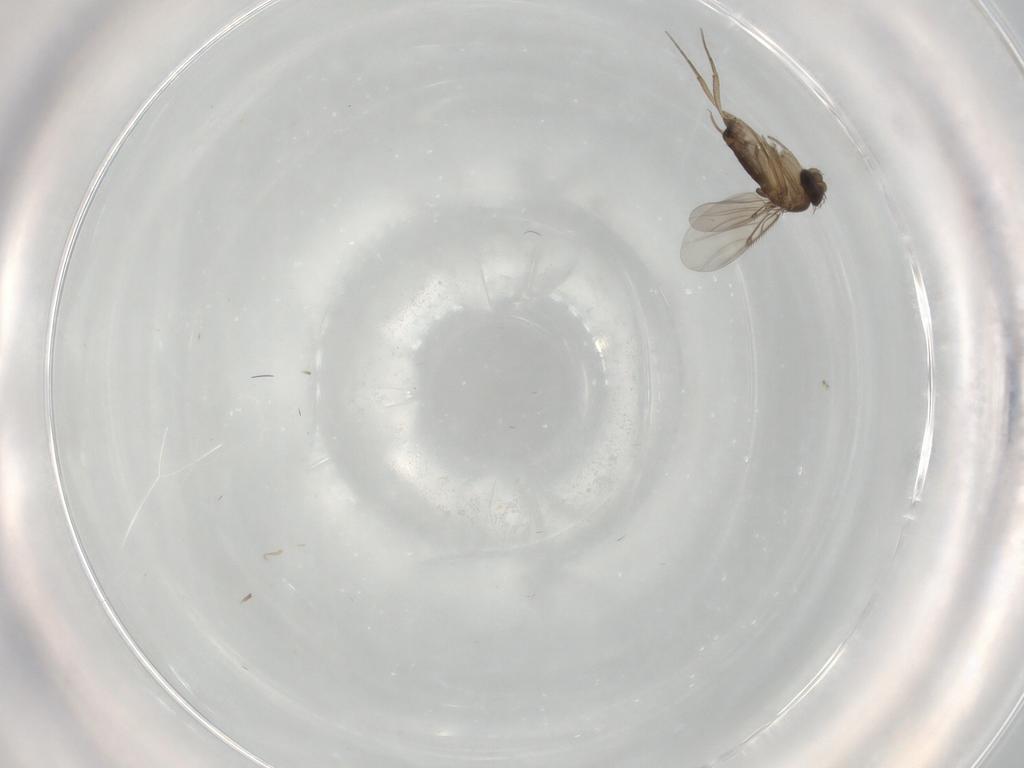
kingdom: Animalia
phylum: Arthropoda
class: Insecta
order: Diptera
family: Phoridae
